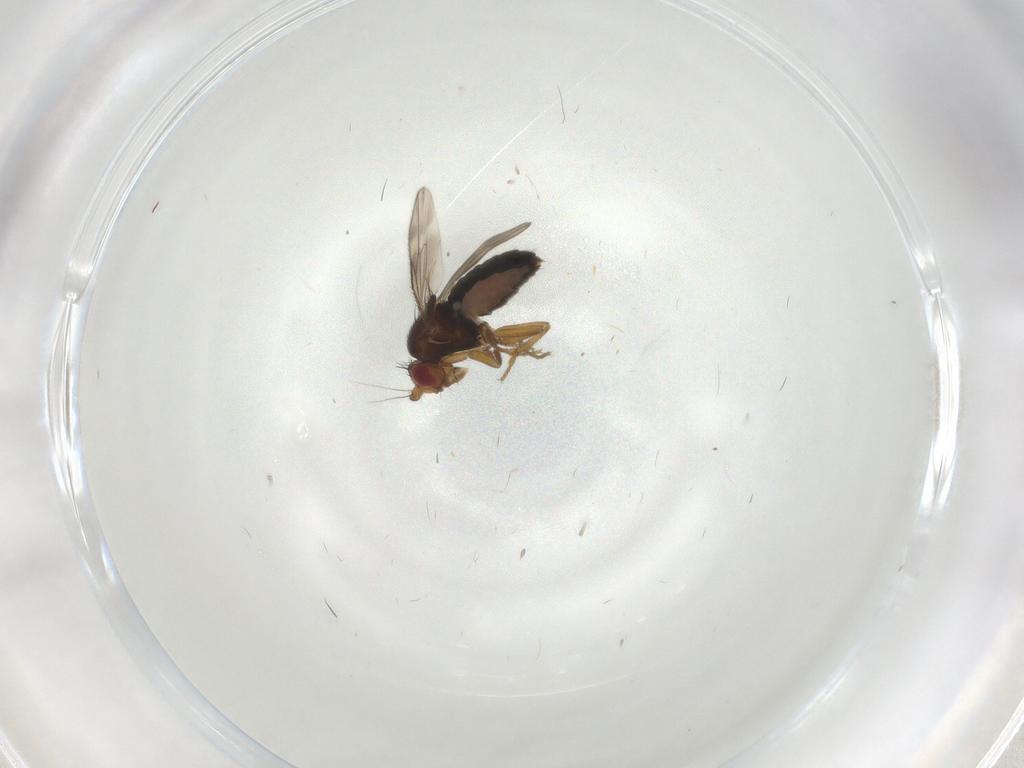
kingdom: Animalia
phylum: Arthropoda
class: Insecta
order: Diptera
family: Sphaeroceridae
